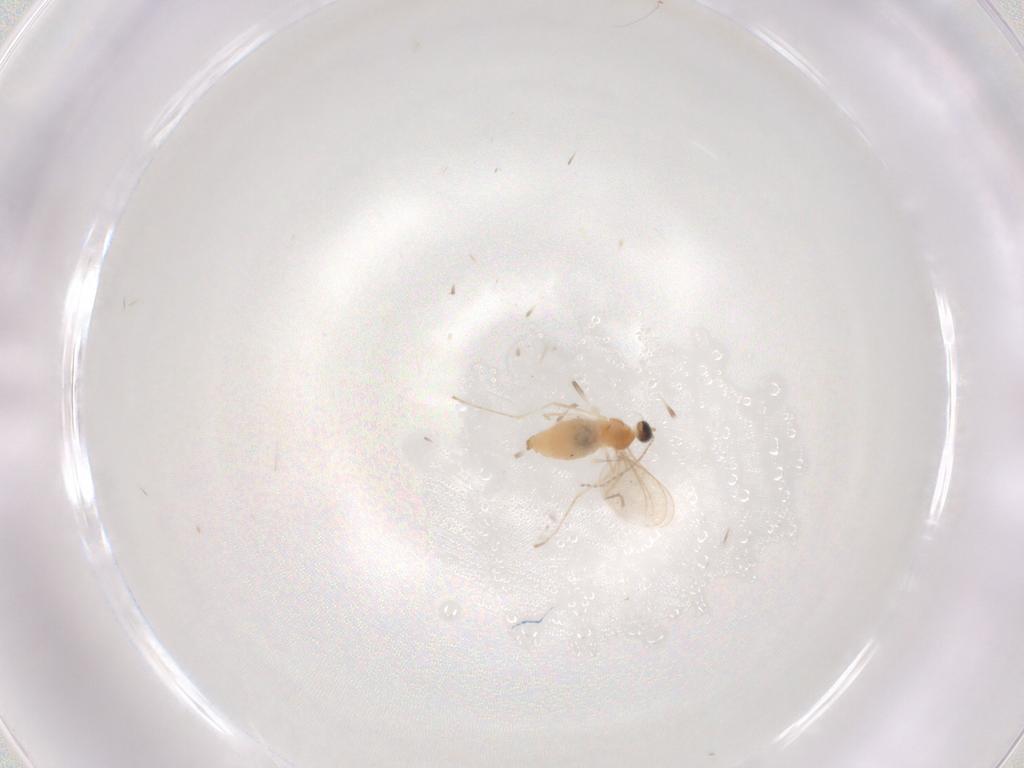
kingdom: Animalia
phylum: Arthropoda
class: Insecta
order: Diptera
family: Cecidomyiidae
